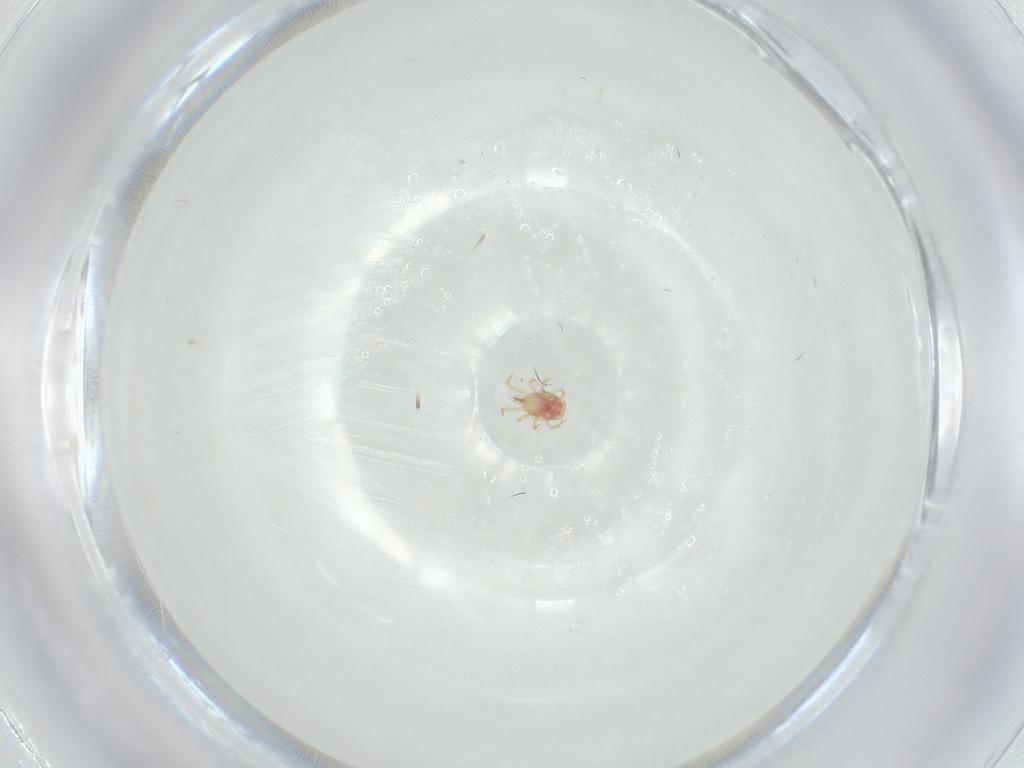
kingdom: Animalia
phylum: Arthropoda
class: Arachnida
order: Mesostigmata
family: Phytoseiidae
